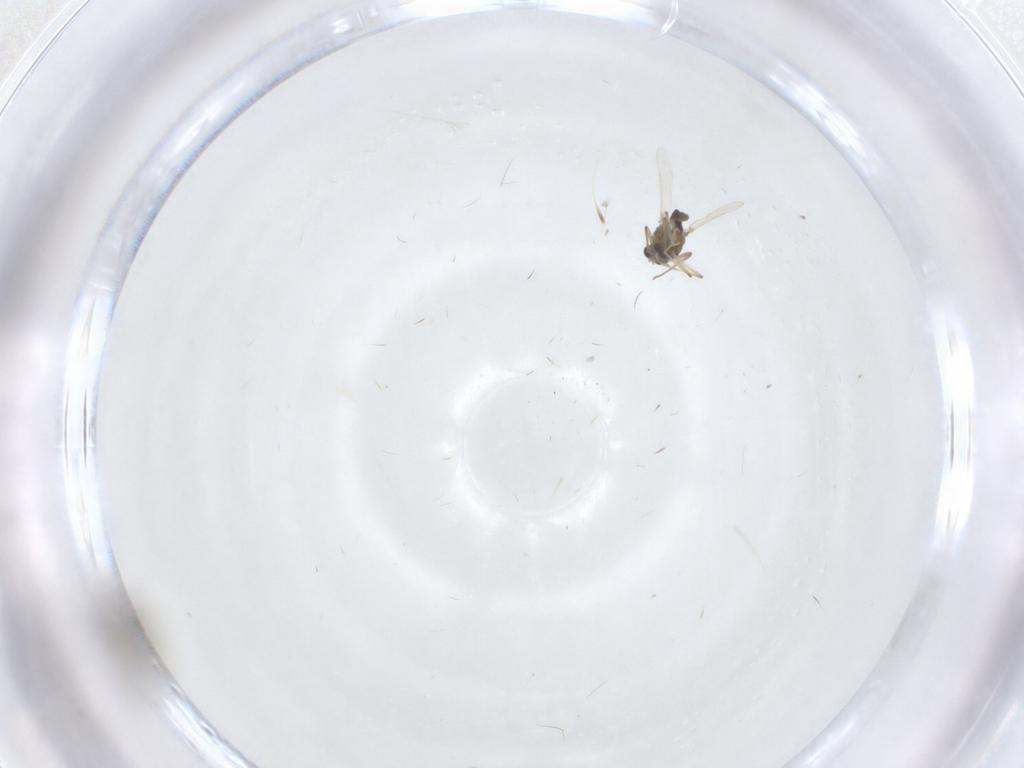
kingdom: Animalia
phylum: Arthropoda
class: Insecta
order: Diptera
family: Chironomidae
